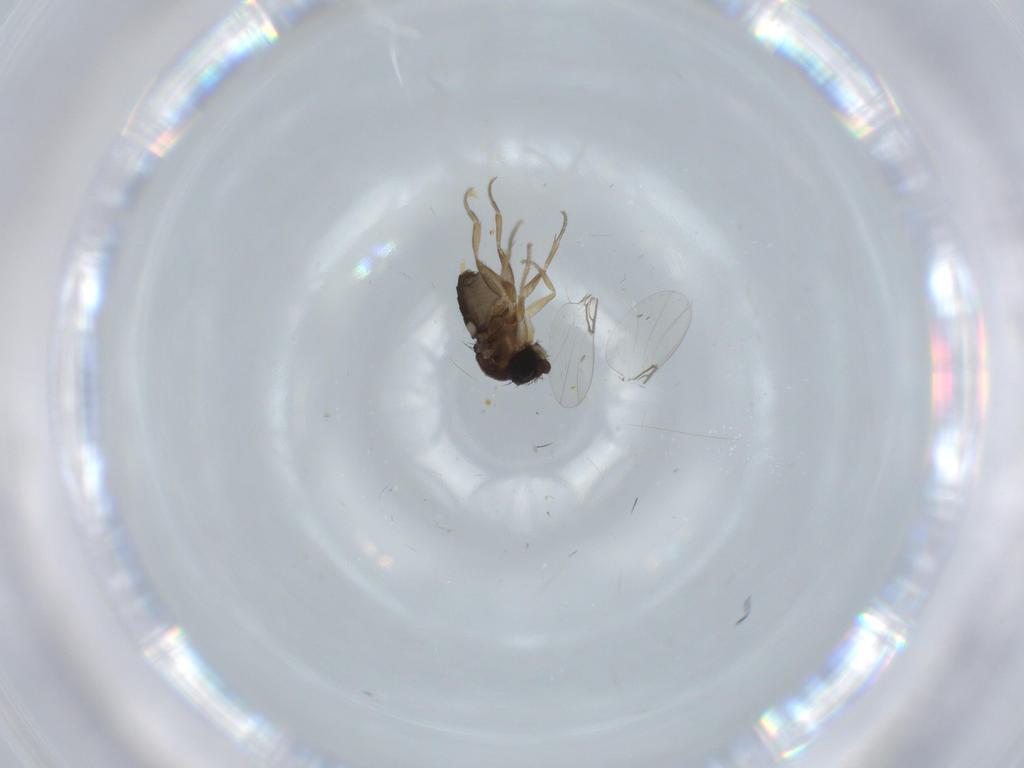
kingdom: Animalia
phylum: Arthropoda
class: Insecta
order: Diptera
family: Phoridae
